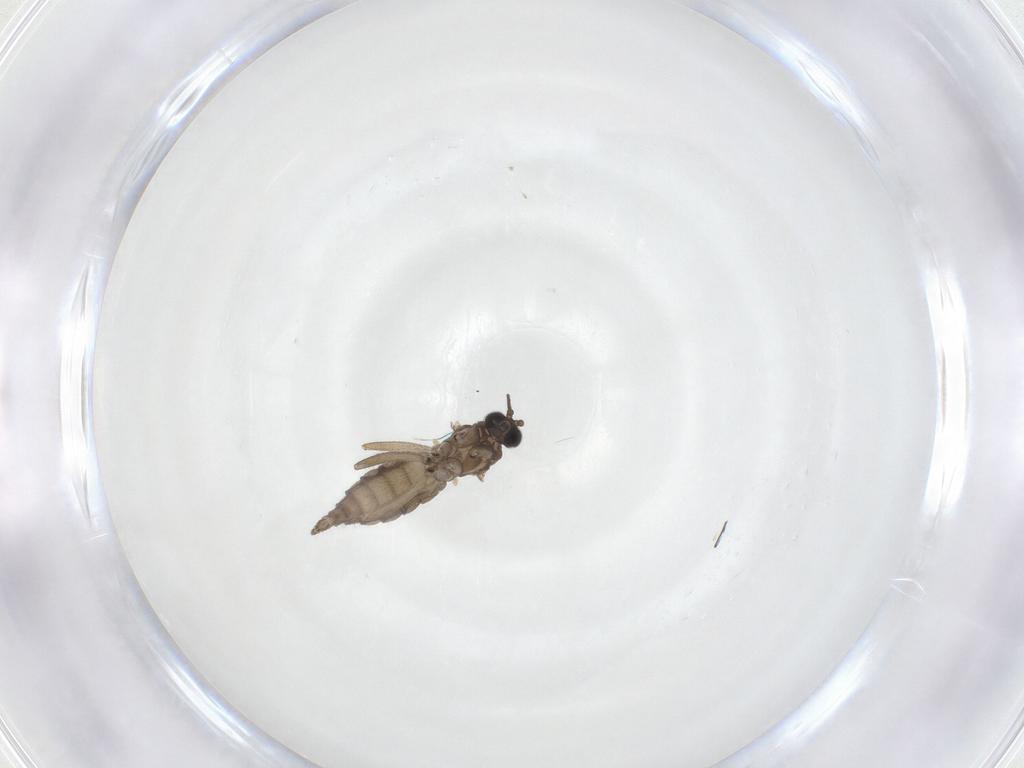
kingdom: Animalia
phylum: Arthropoda
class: Insecta
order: Diptera
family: Sciaridae
